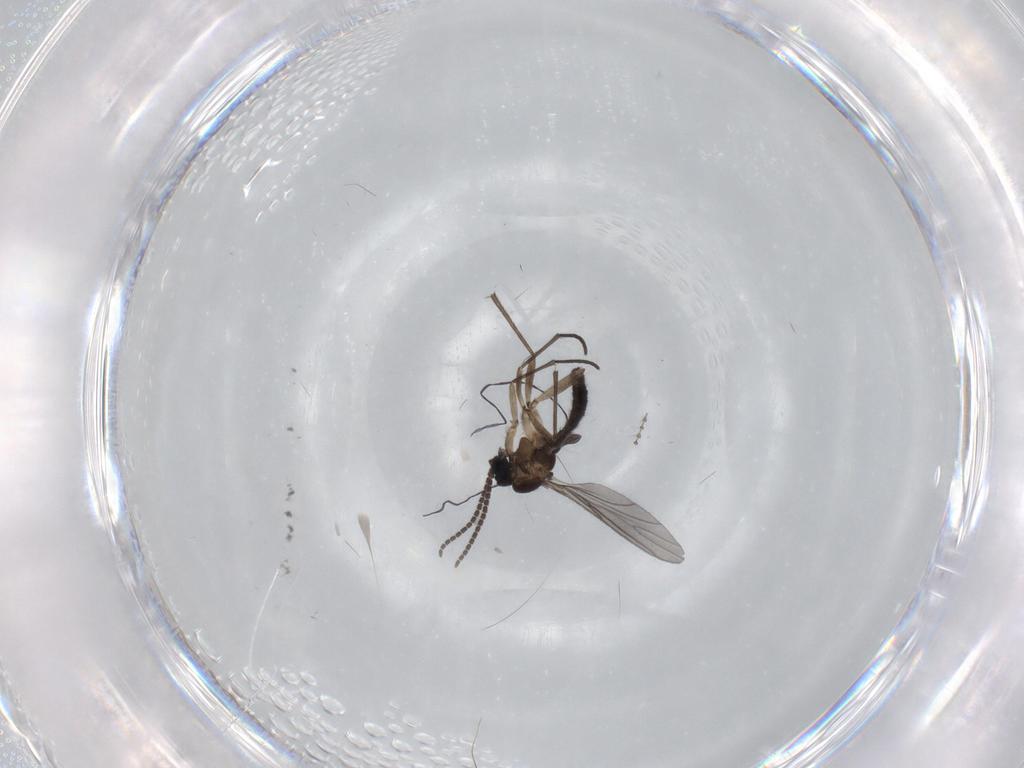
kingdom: Animalia
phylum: Arthropoda
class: Insecta
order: Diptera
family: Sciaridae
